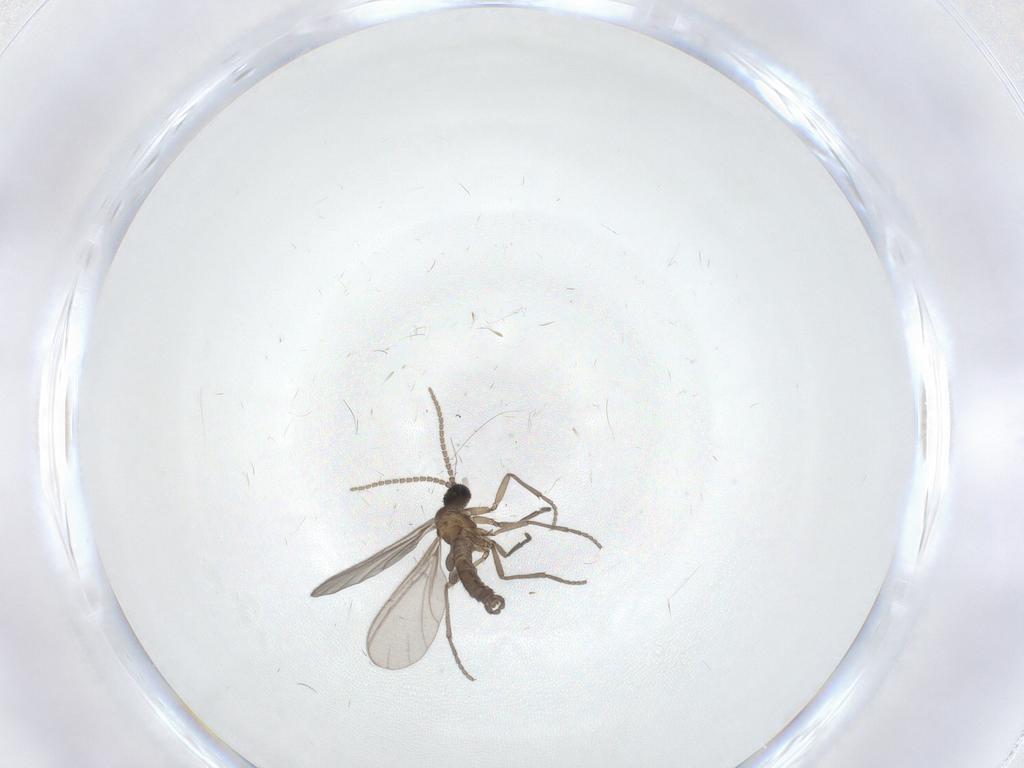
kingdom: Animalia
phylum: Arthropoda
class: Insecta
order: Diptera
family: Sciaridae
